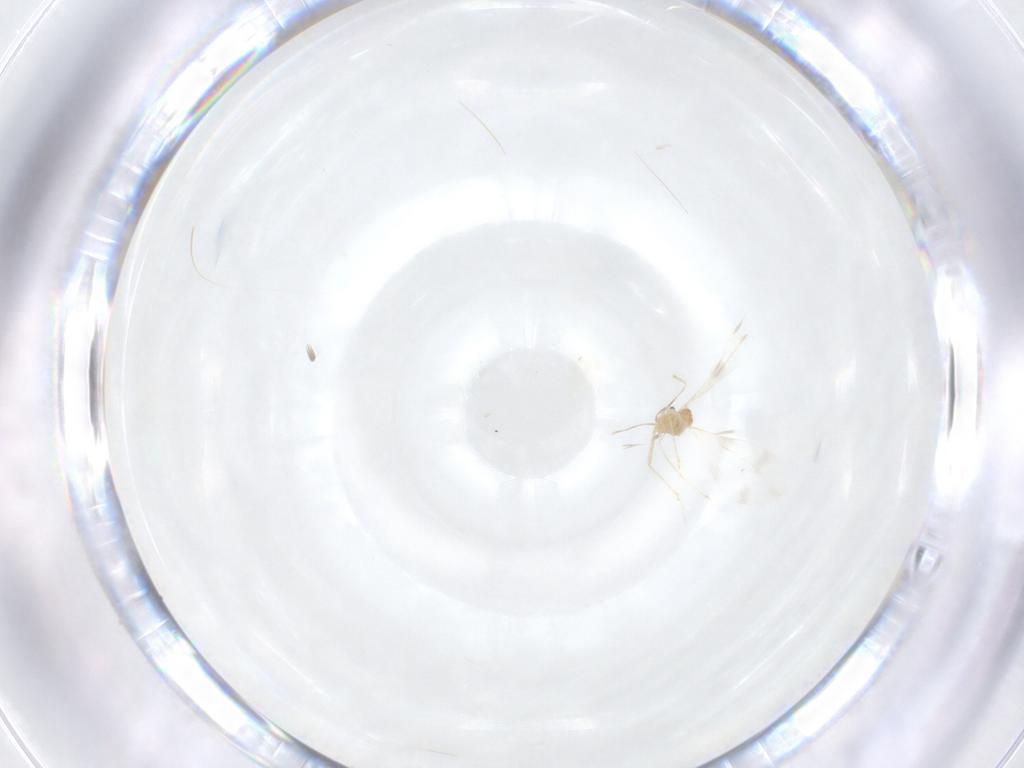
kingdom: Animalia
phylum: Arthropoda
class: Insecta
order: Diptera
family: Cecidomyiidae
